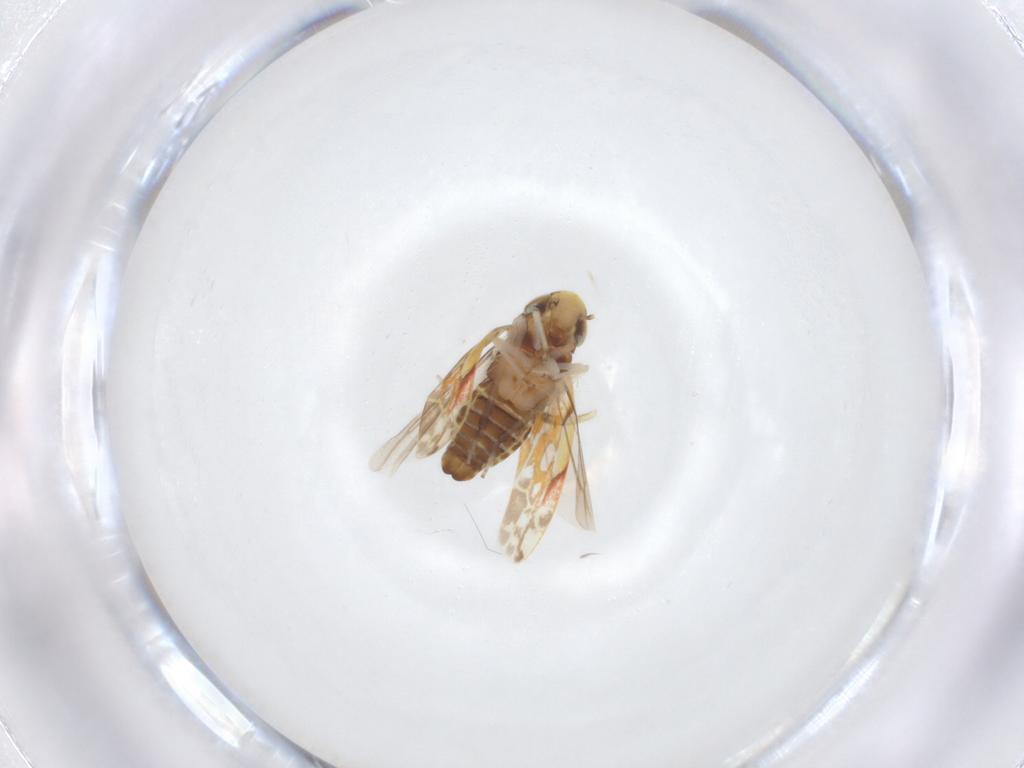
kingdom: Animalia
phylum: Arthropoda
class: Insecta
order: Hemiptera
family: Cicadellidae
